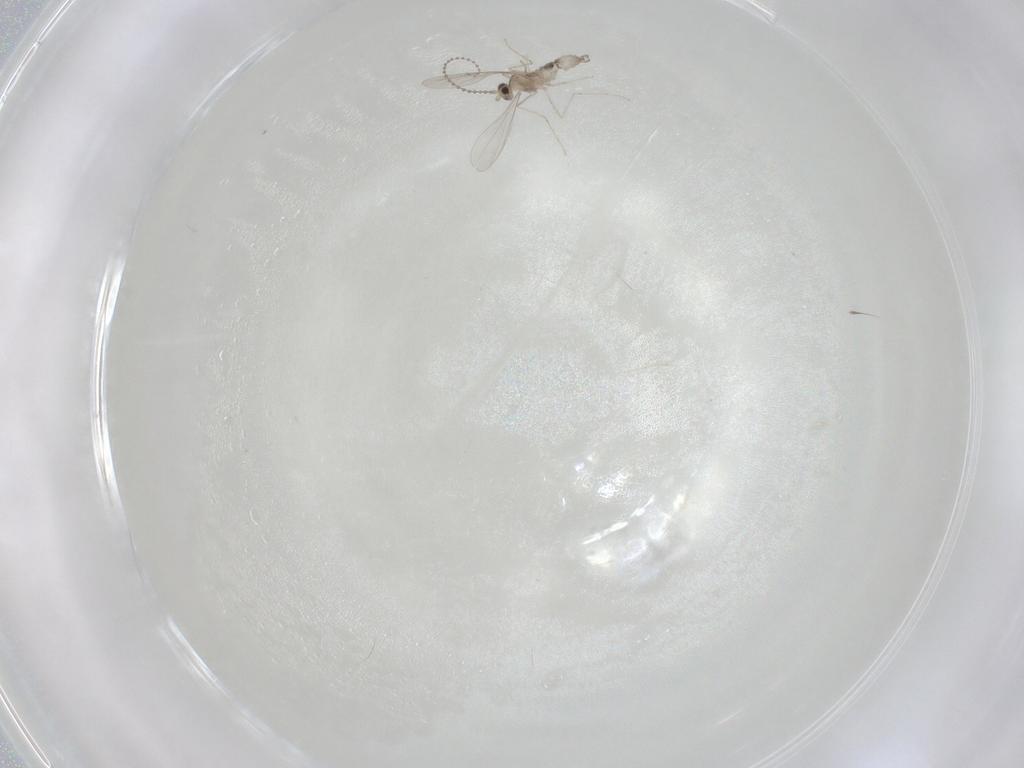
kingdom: Animalia
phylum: Arthropoda
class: Insecta
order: Diptera
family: Cecidomyiidae
